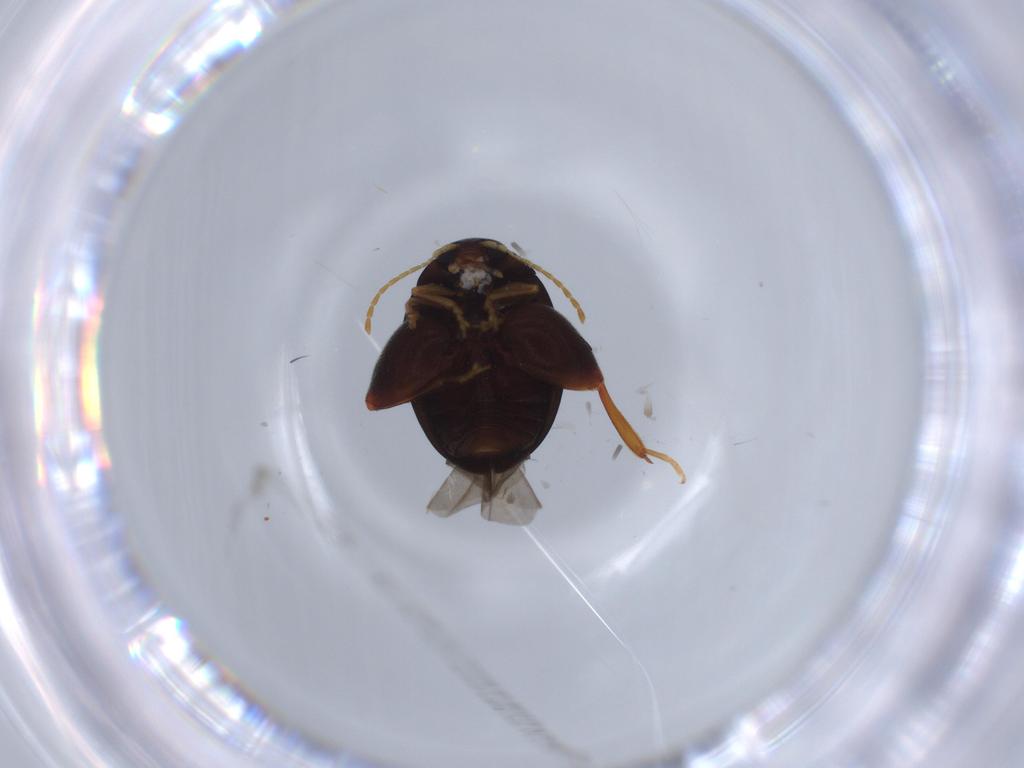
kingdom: Animalia
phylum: Arthropoda
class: Insecta
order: Coleoptera
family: Chrysomelidae
